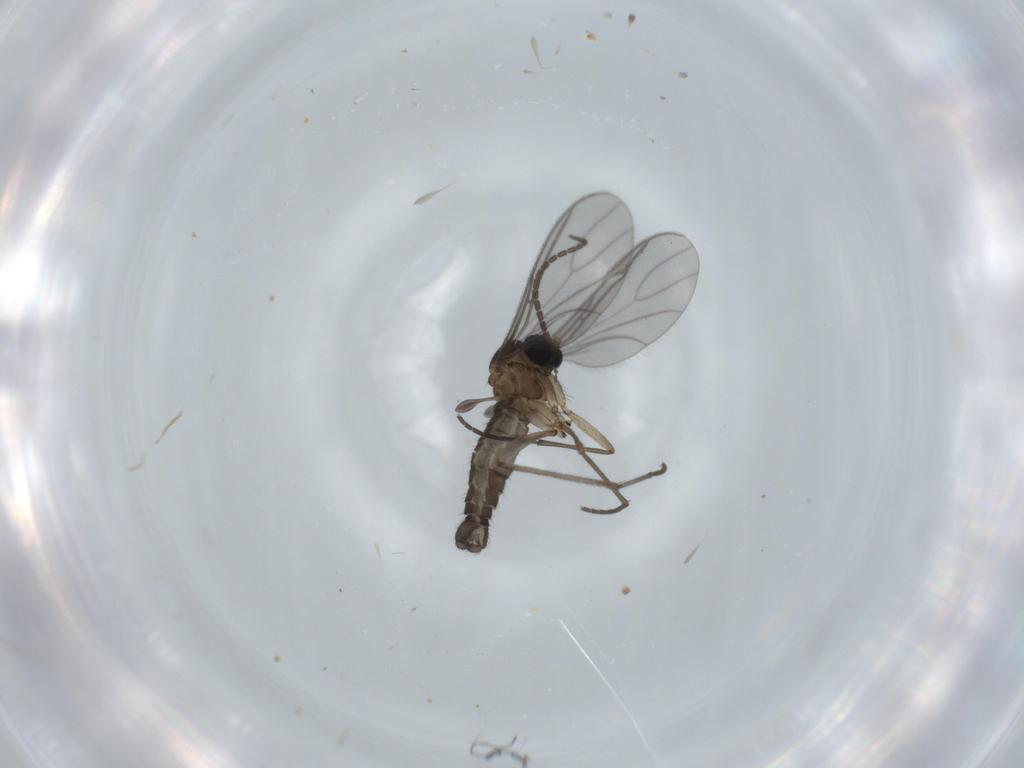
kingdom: Animalia
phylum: Arthropoda
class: Insecta
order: Diptera
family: Sciaridae
